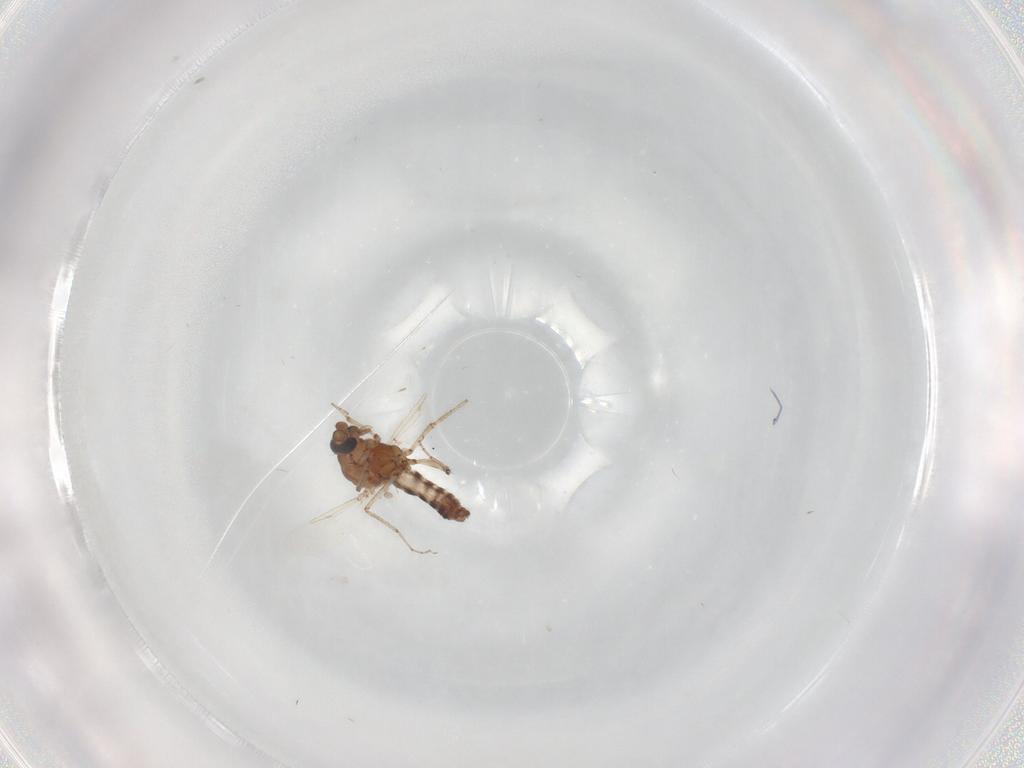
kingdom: Animalia
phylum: Arthropoda
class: Insecta
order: Diptera
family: Ceratopogonidae
